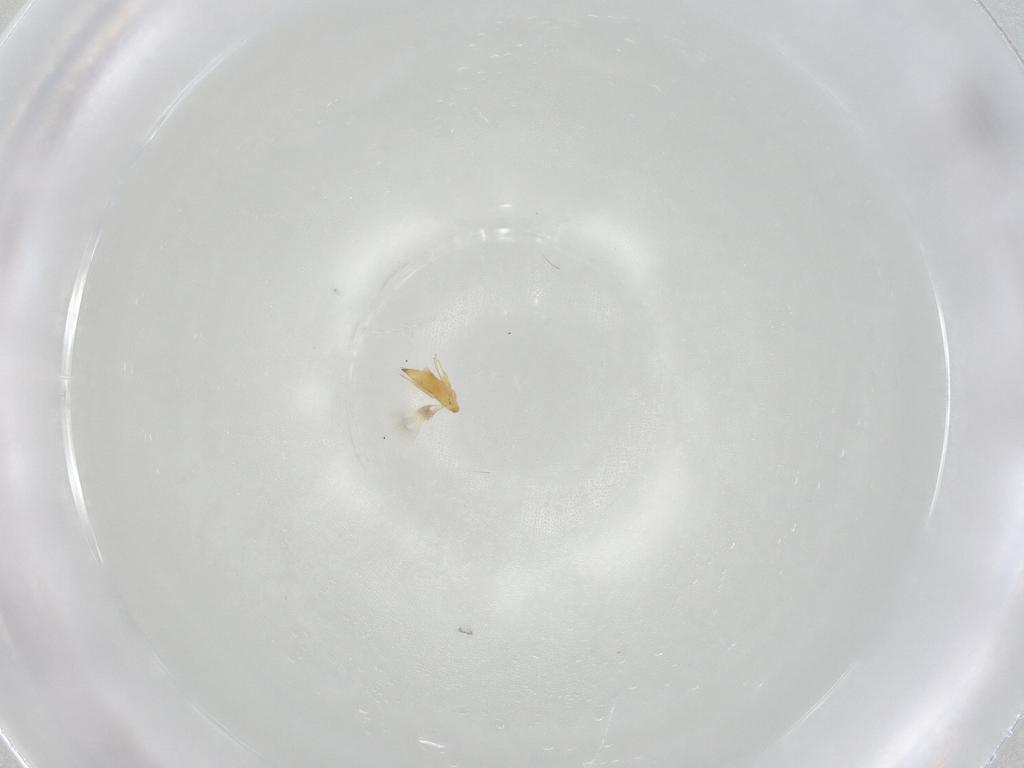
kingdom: Animalia
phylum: Arthropoda
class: Insecta
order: Hymenoptera
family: Signiphoridae
